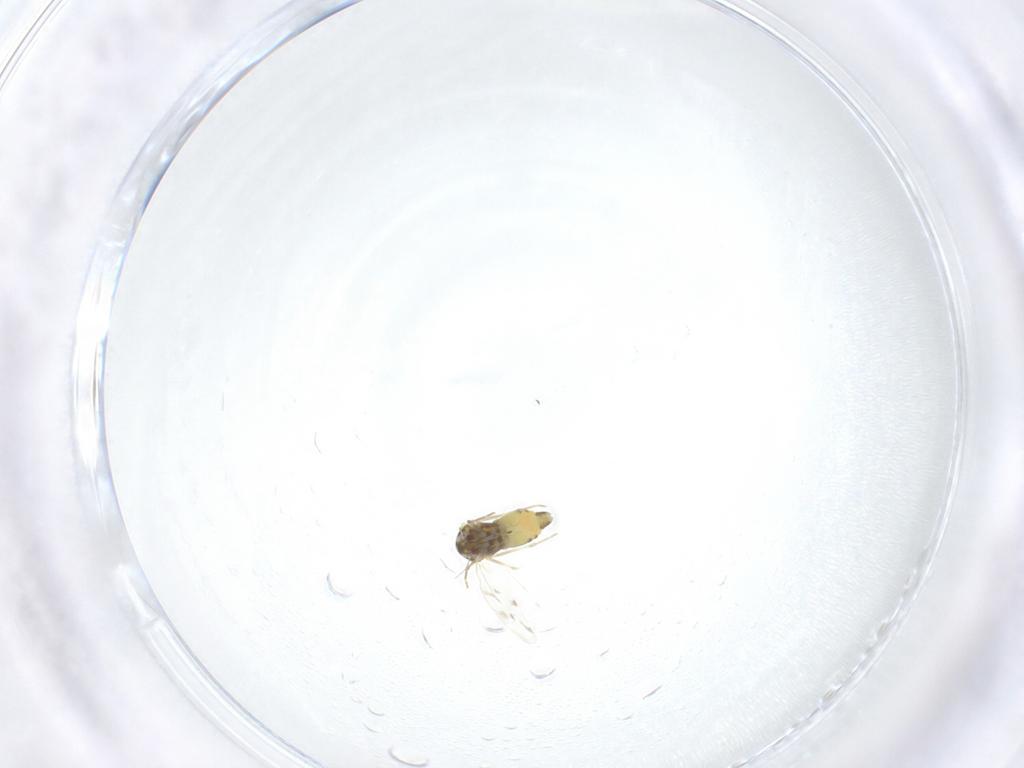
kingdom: Animalia
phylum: Arthropoda
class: Insecta
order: Hemiptera
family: Aleyrodidae
